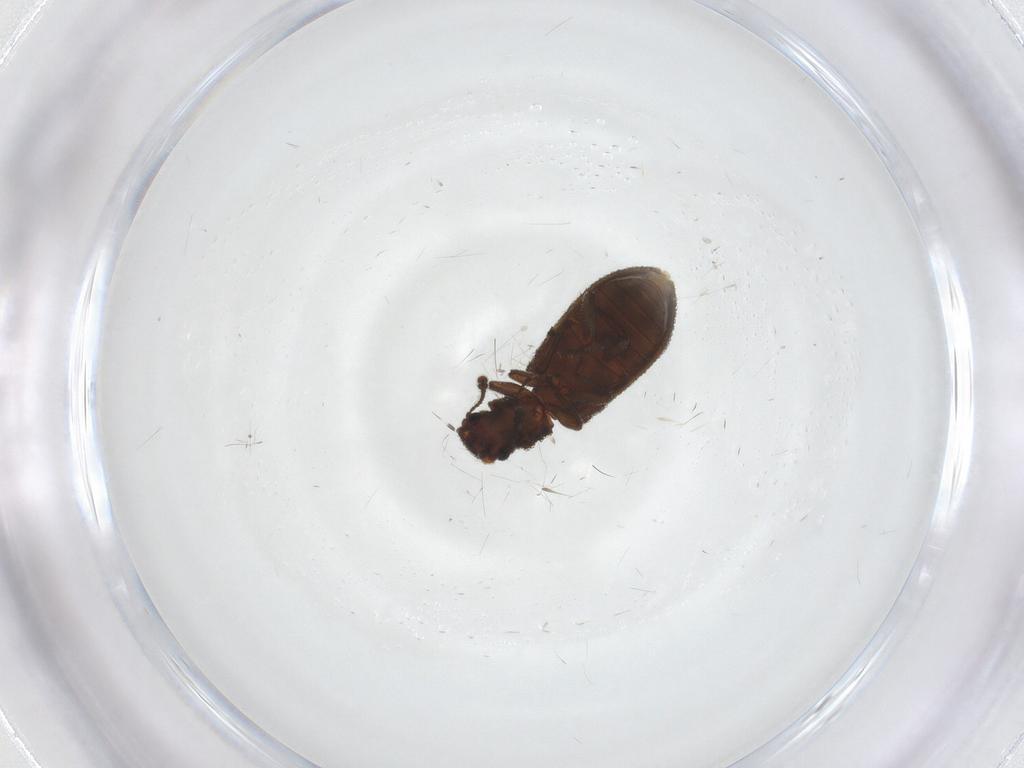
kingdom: Animalia
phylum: Arthropoda
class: Insecta
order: Coleoptera
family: Zopheridae
